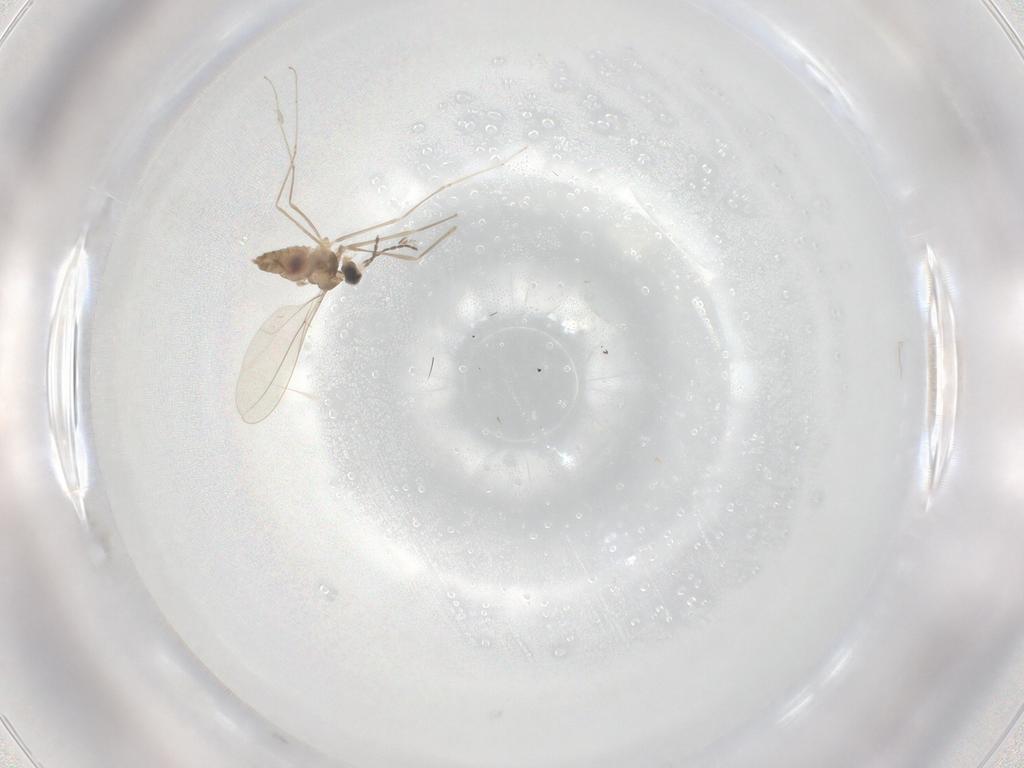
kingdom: Animalia
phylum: Arthropoda
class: Insecta
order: Diptera
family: Cecidomyiidae
